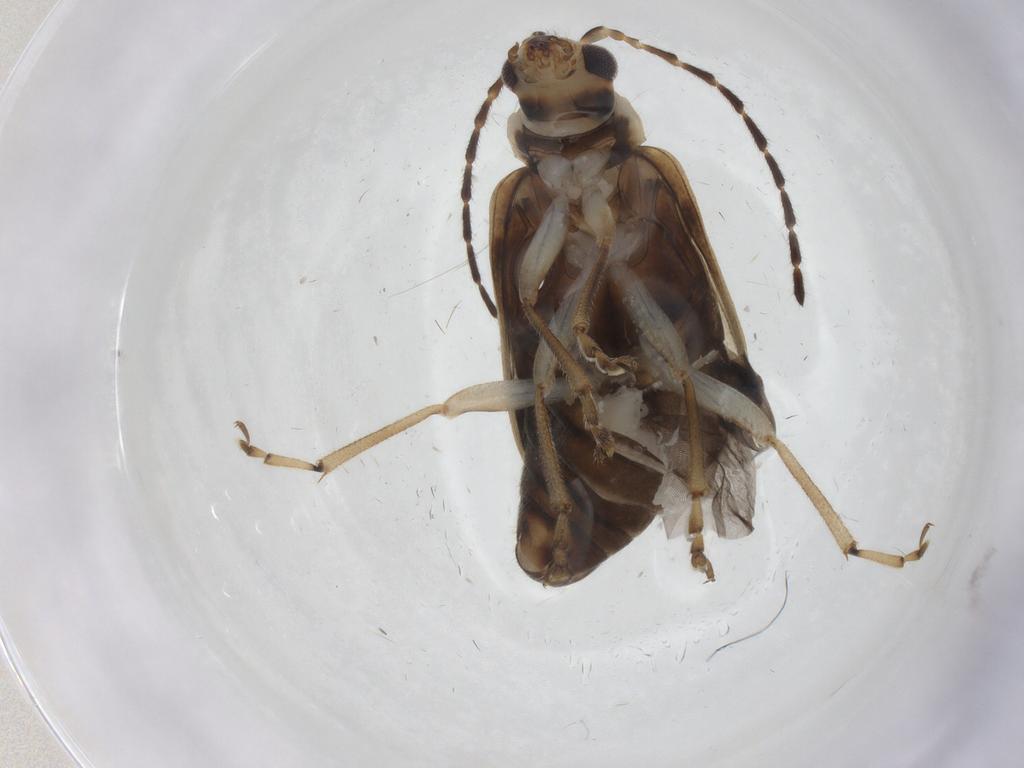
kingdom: Animalia
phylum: Arthropoda
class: Insecta
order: Coleoptera
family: Chrysomelidae
